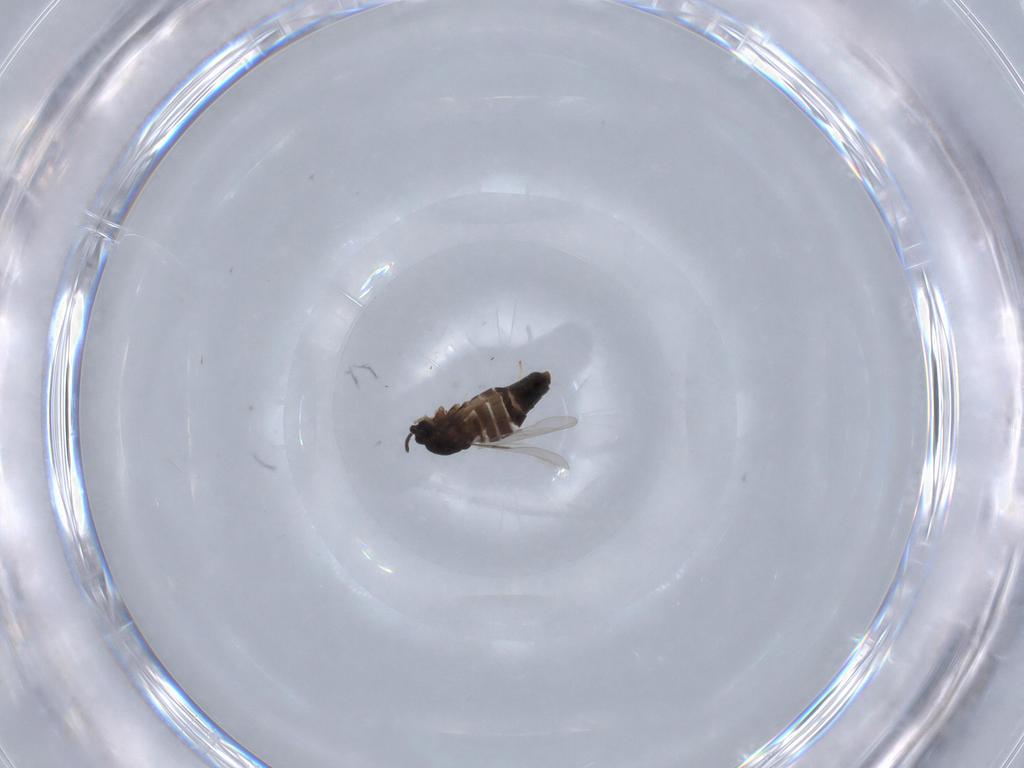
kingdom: Animalia
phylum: Arthropoda
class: Insecta
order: Diptera
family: Scatopsidae
